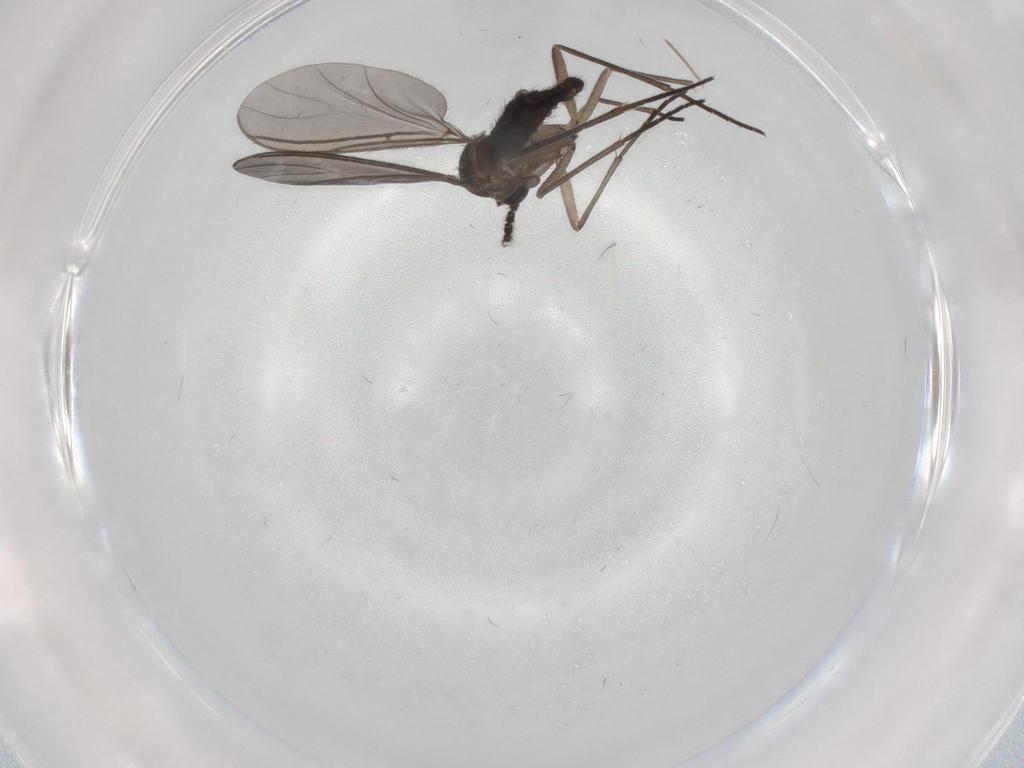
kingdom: Animalia
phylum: Arthropoda
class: Insecta
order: Diptera
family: Sciaridae
